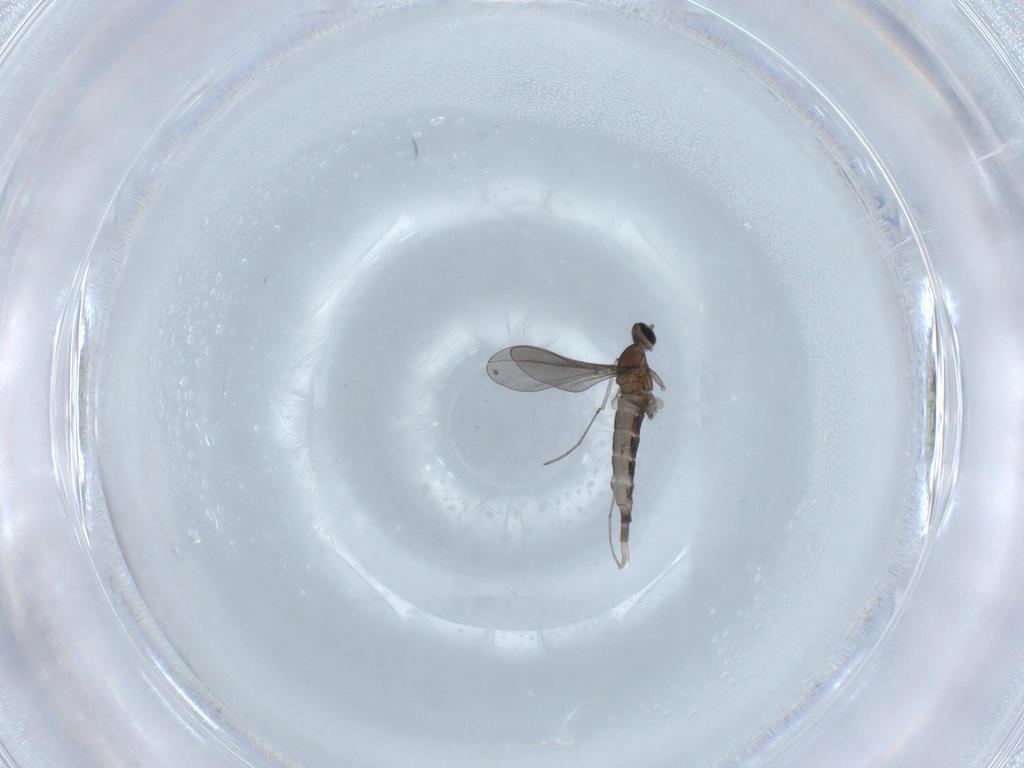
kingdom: Animalia
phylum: Arthropoda
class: Insecta
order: Diptera
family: Cecidomyiidae
